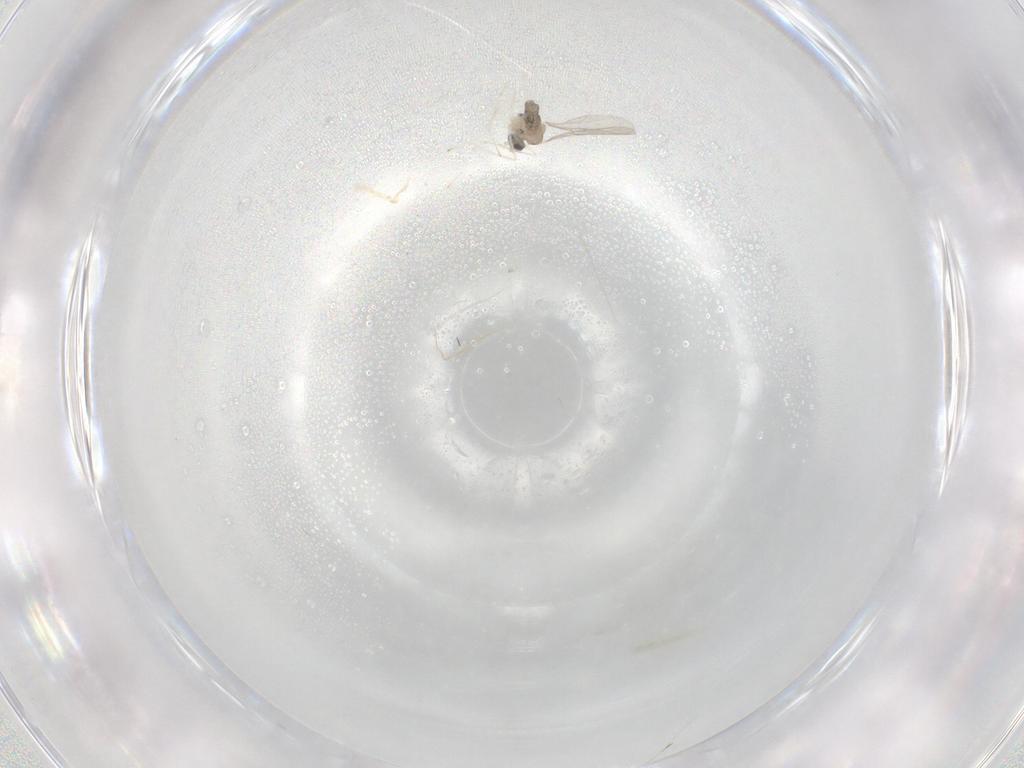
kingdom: Animalia
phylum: Arthropoda
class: Insecta
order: Diptera
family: Cecidomyiidae
